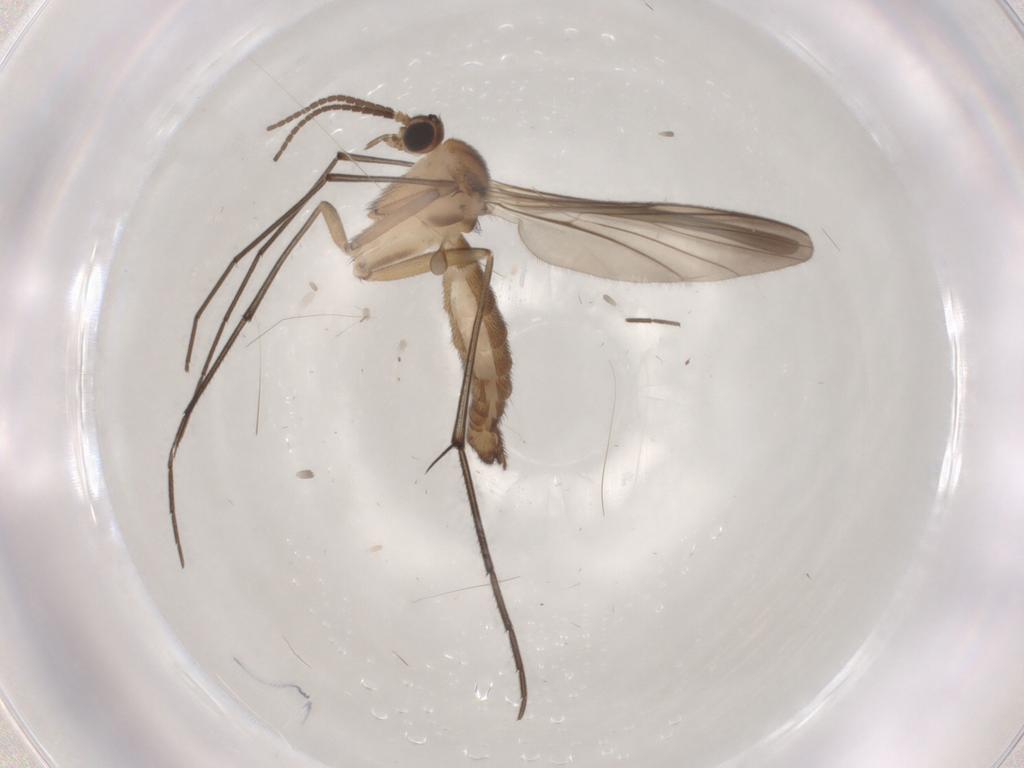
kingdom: Animalia
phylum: Arthropoda
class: Insecta
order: Diptera
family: Keroplatidae
